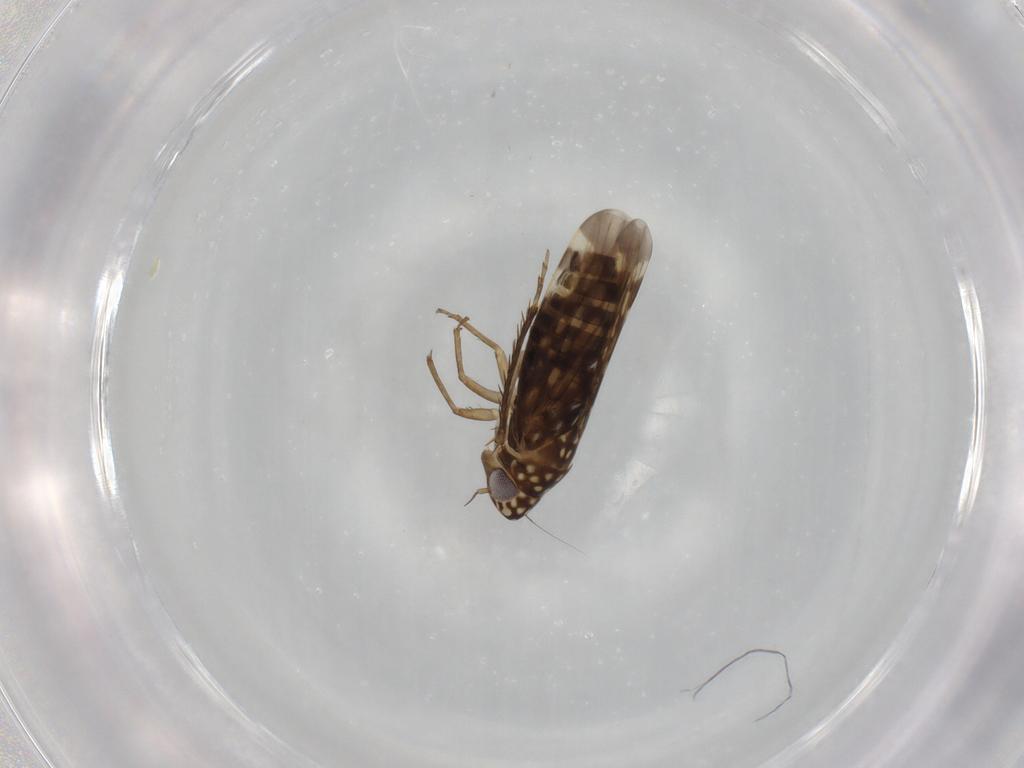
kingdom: Animalia
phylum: Arthropoda
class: Insecta
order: Hemiptera
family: Cicadellidae
